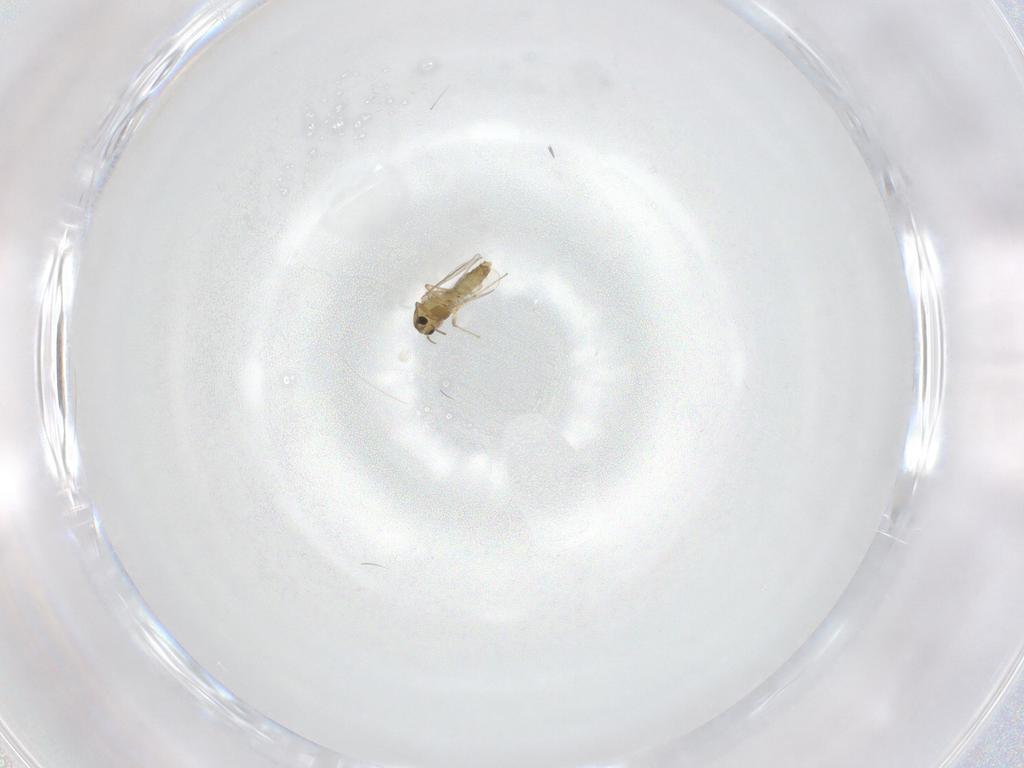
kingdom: Animalia
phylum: Arthropoda
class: Insecta
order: Diptera
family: Chironomidae
